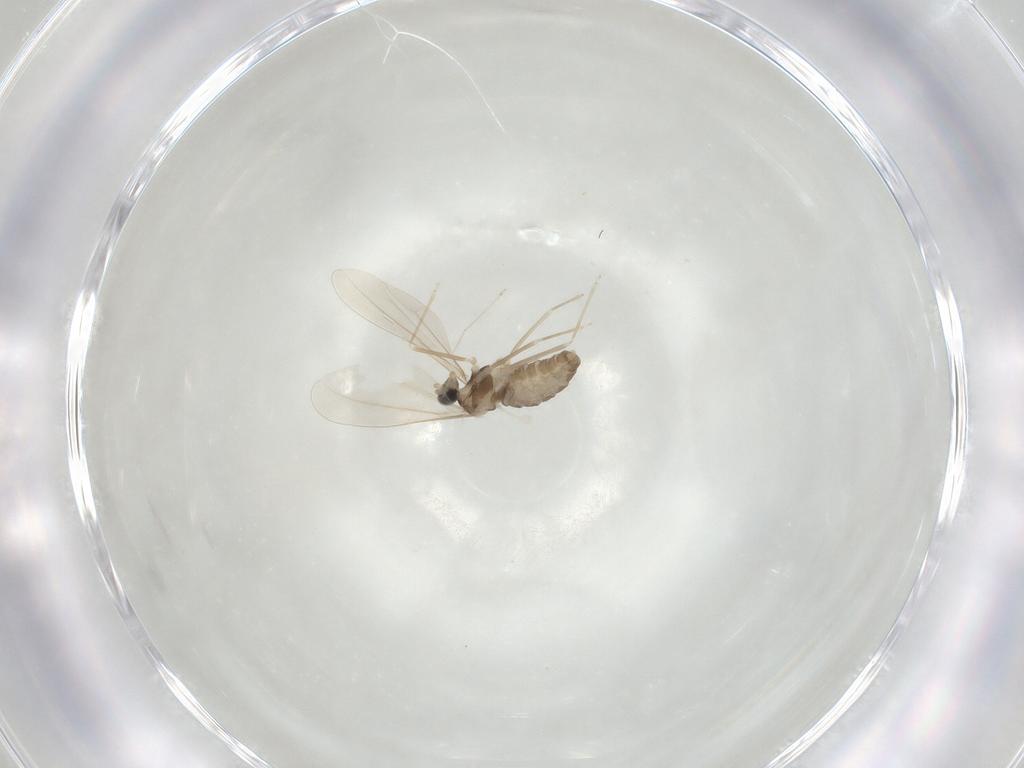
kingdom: Animalia
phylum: Arthropoda
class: Insecta
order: Diptera
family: Cecidomyiidae
